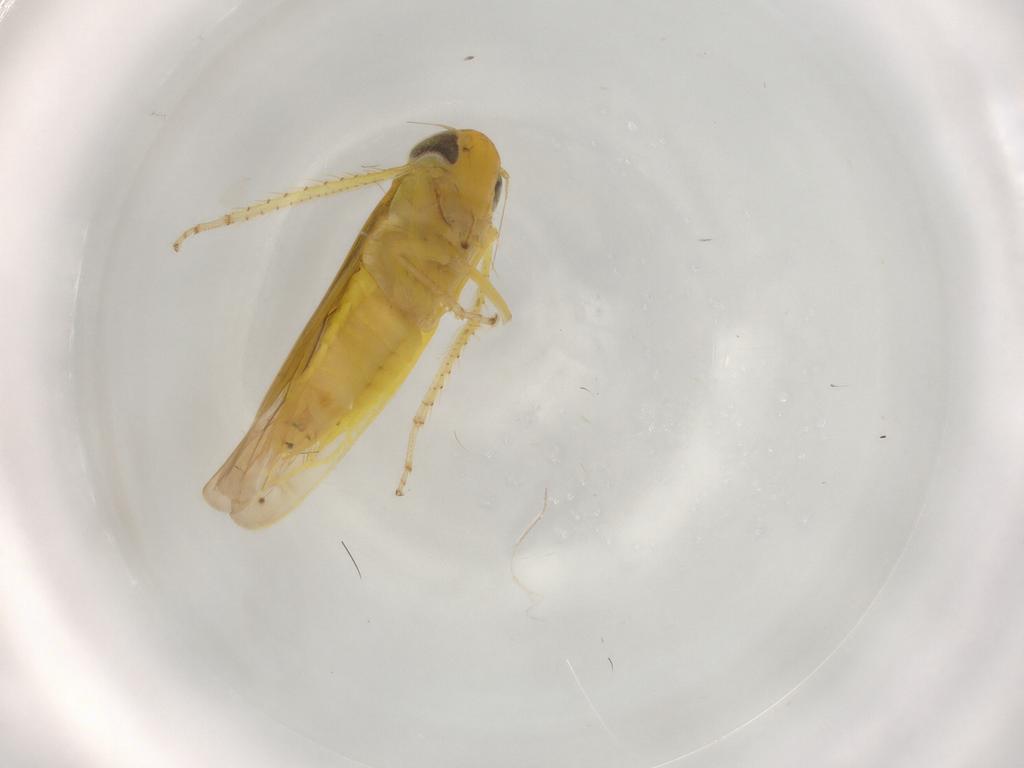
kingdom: Animalia
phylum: Arthropoda
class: Insecta
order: Hemiptera
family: Cicadellidae
